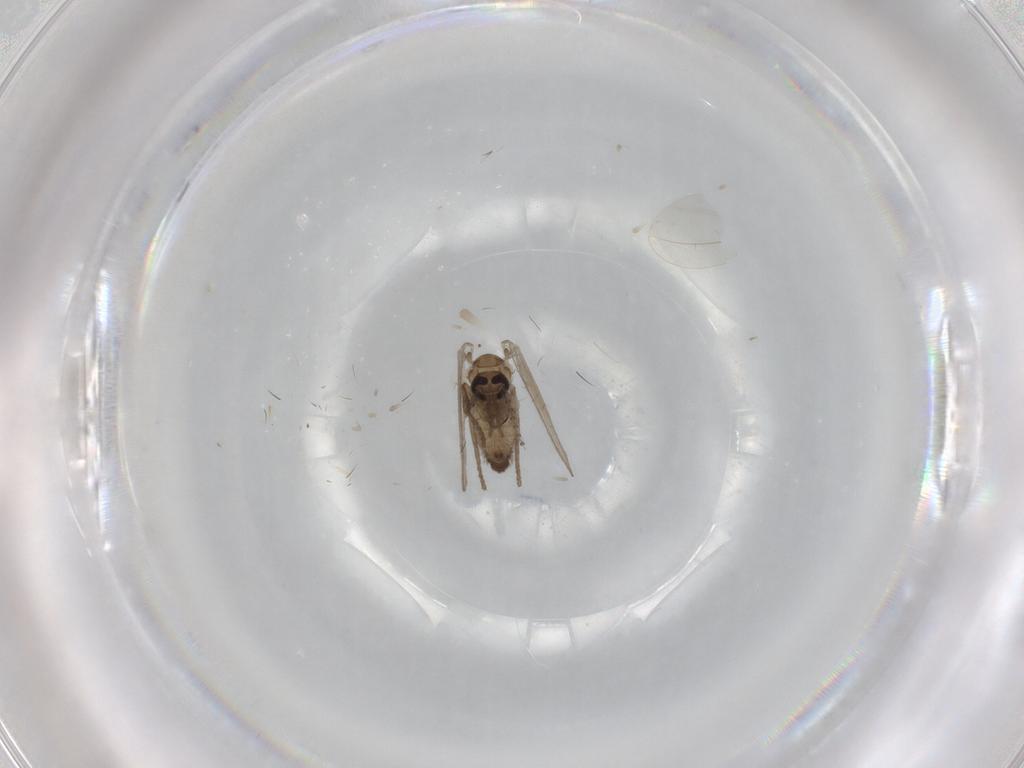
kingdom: Animalia
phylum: Arthropoda
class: Insecta
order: Diptera
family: Psychodidae
